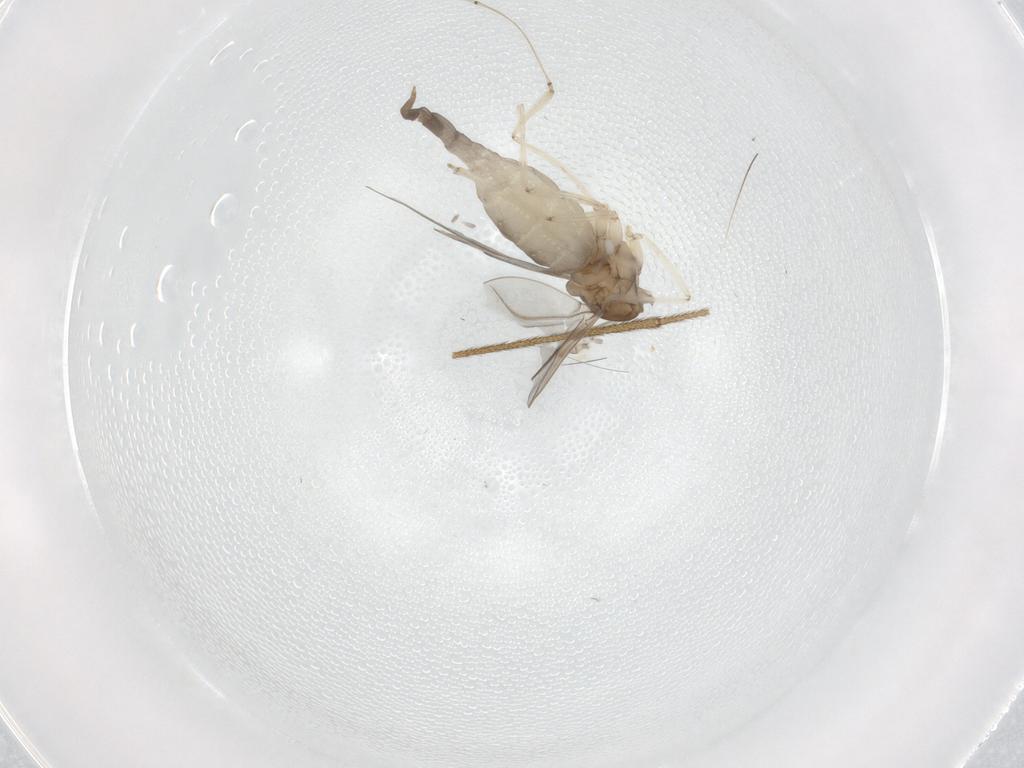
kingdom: Animalia
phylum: Arthropoda
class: Insecta
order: Diptera
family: Cecidomyiidae
